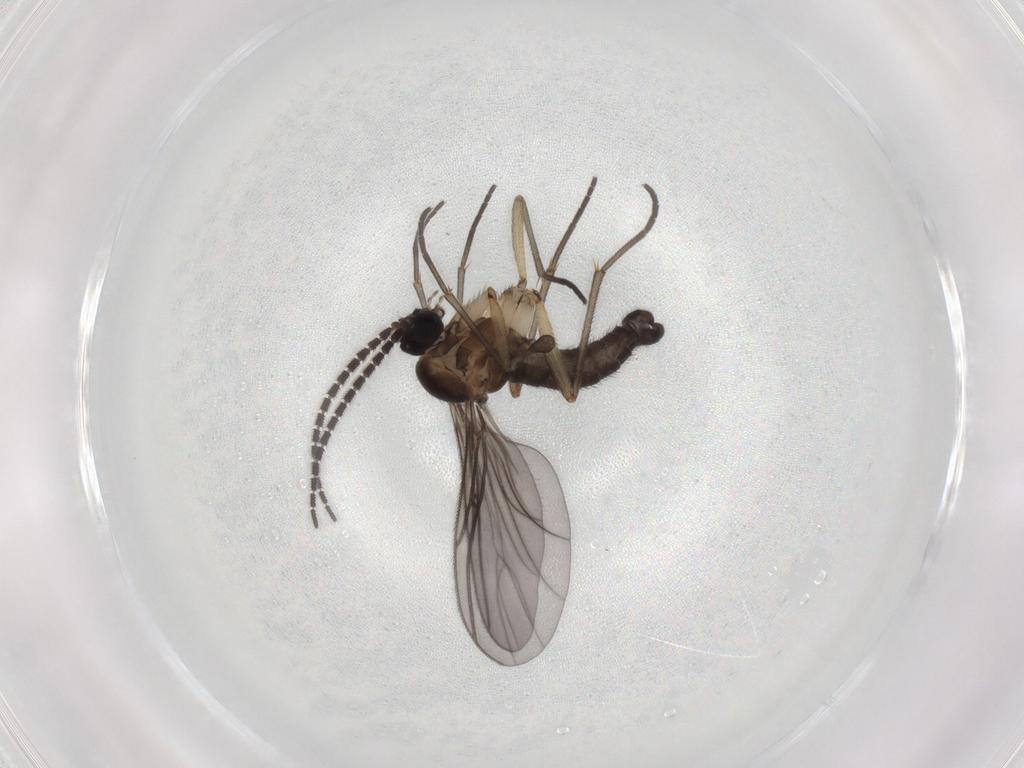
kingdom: Animalia
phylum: Arthropoda
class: Insecta
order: Diptera
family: Sciaridae
